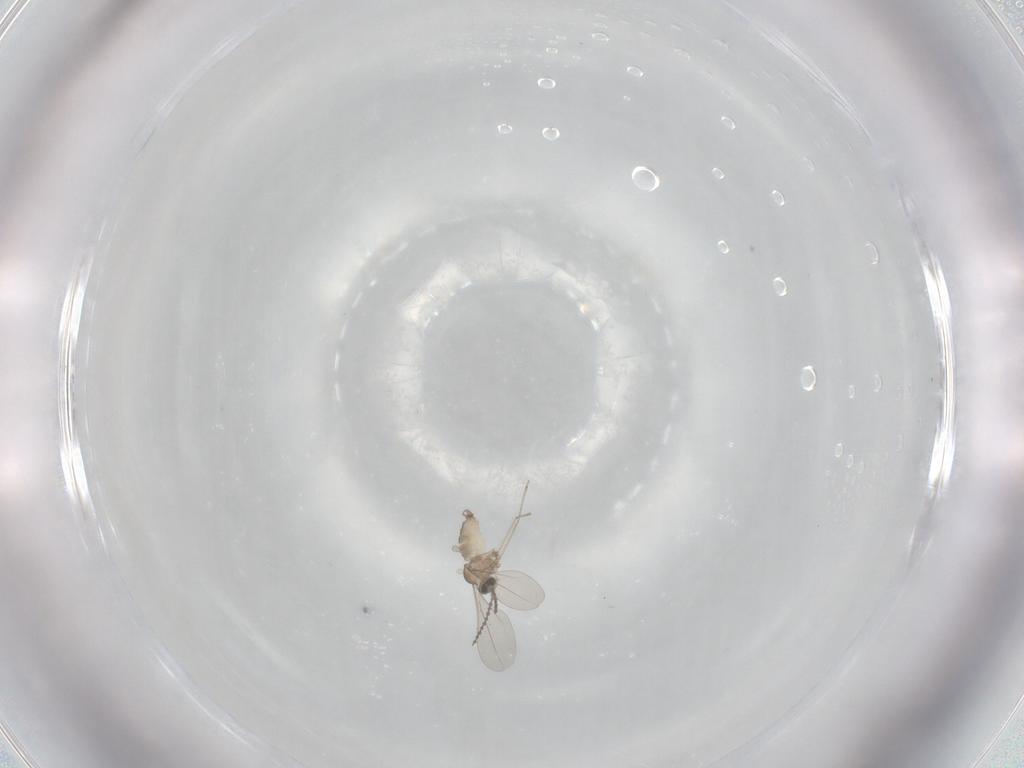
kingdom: Animalia
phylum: Arthropoda
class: Insecta
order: Diptera
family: Cecidomyiidae
